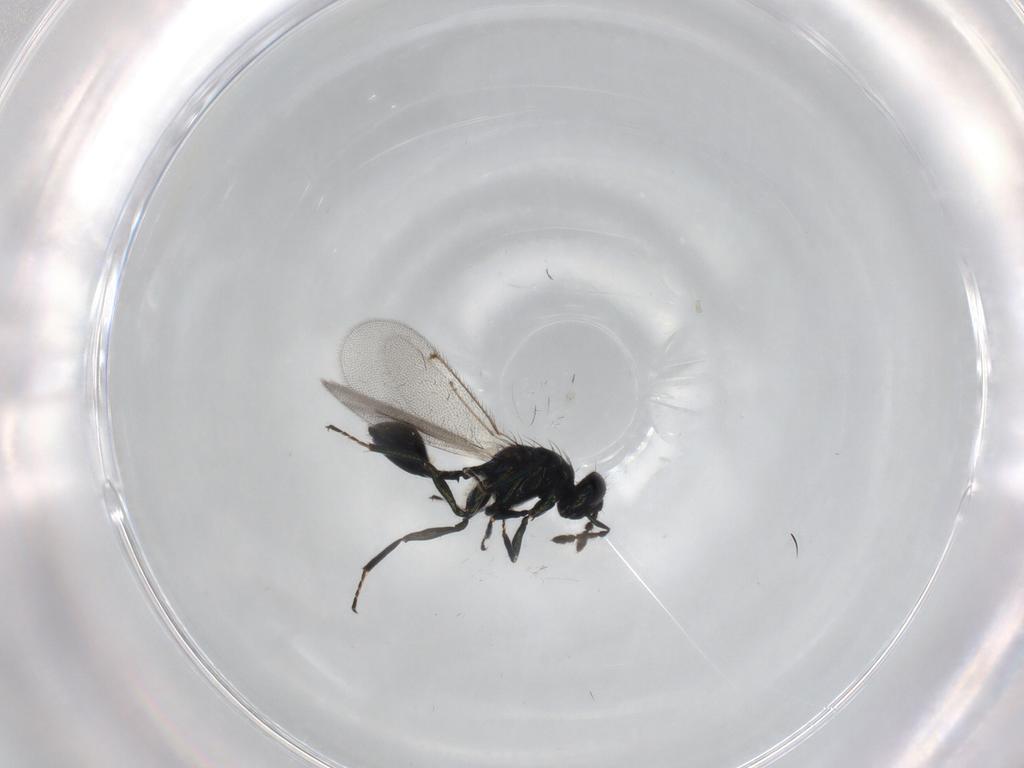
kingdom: Animalia
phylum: Arthropoda
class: Insecta
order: Hymenoptera
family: Eulophidae
